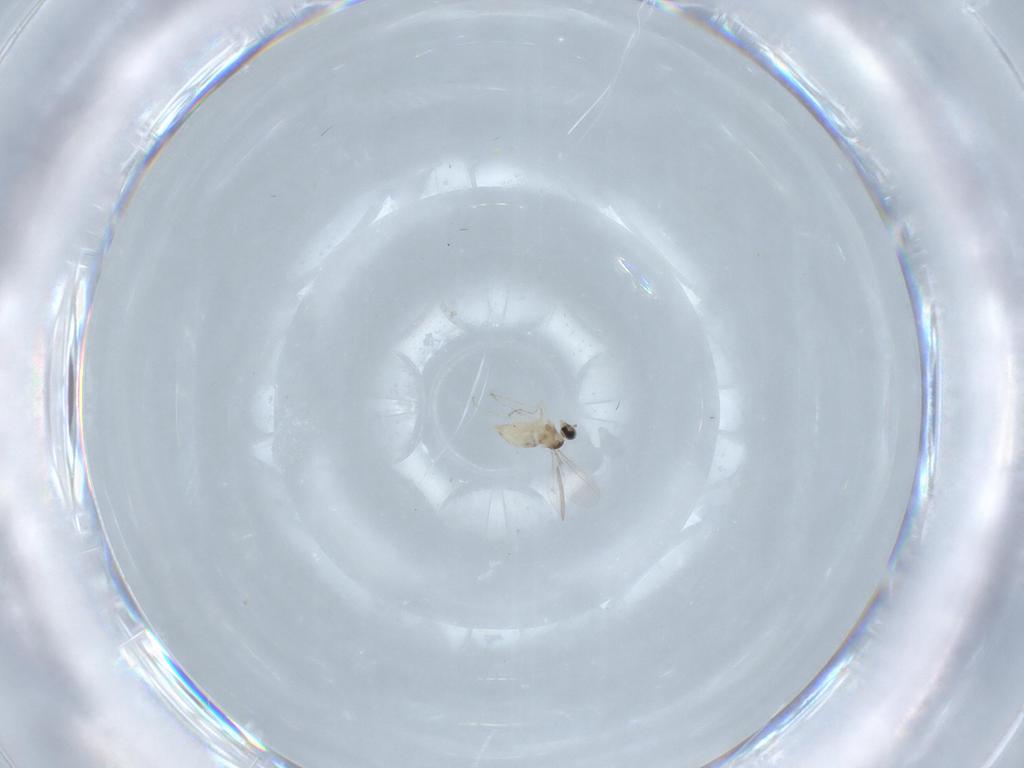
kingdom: Animalia
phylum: Arthropoda
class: Insecta
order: Diptera
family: Cecidomyiidae
